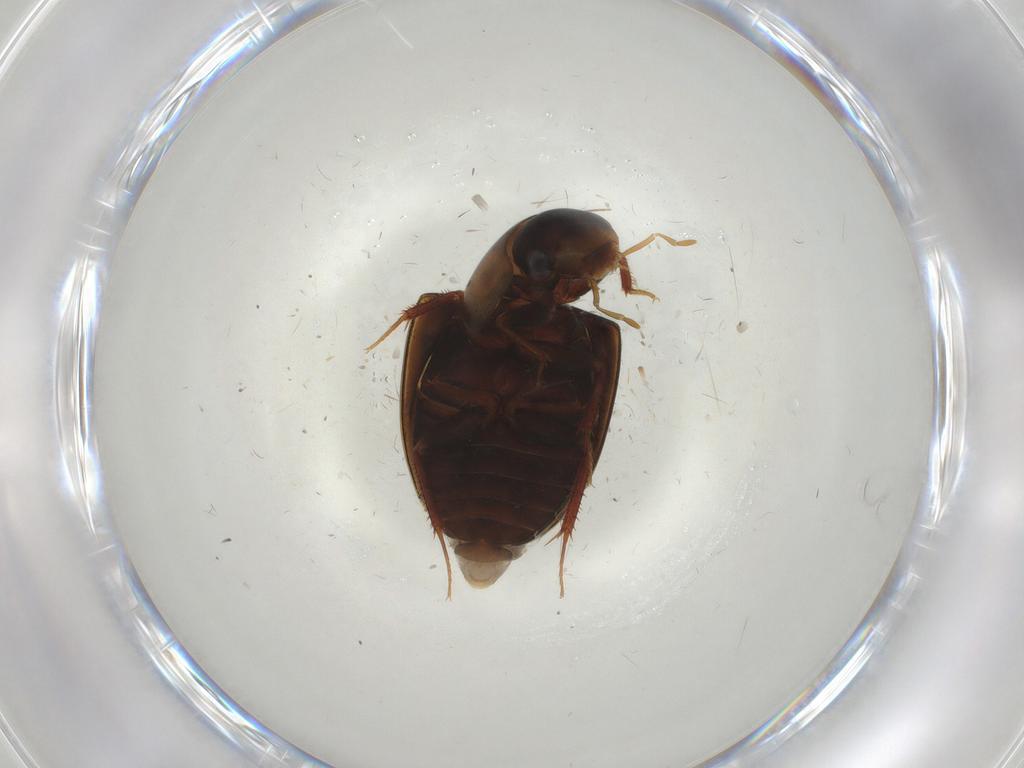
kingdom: Animalia
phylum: Arthropoda
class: Insecta
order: Coleoptera
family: Hydrophilidae
